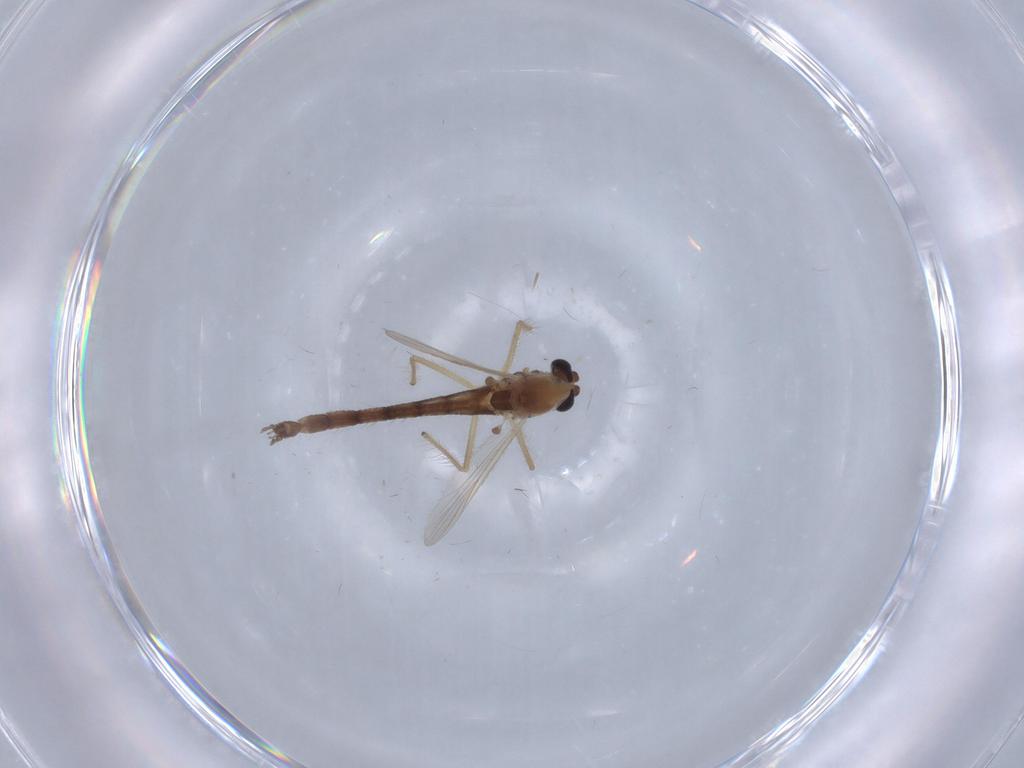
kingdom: Animalia
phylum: Arthropoda
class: Insecta
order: Diptera
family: Chironomidae
